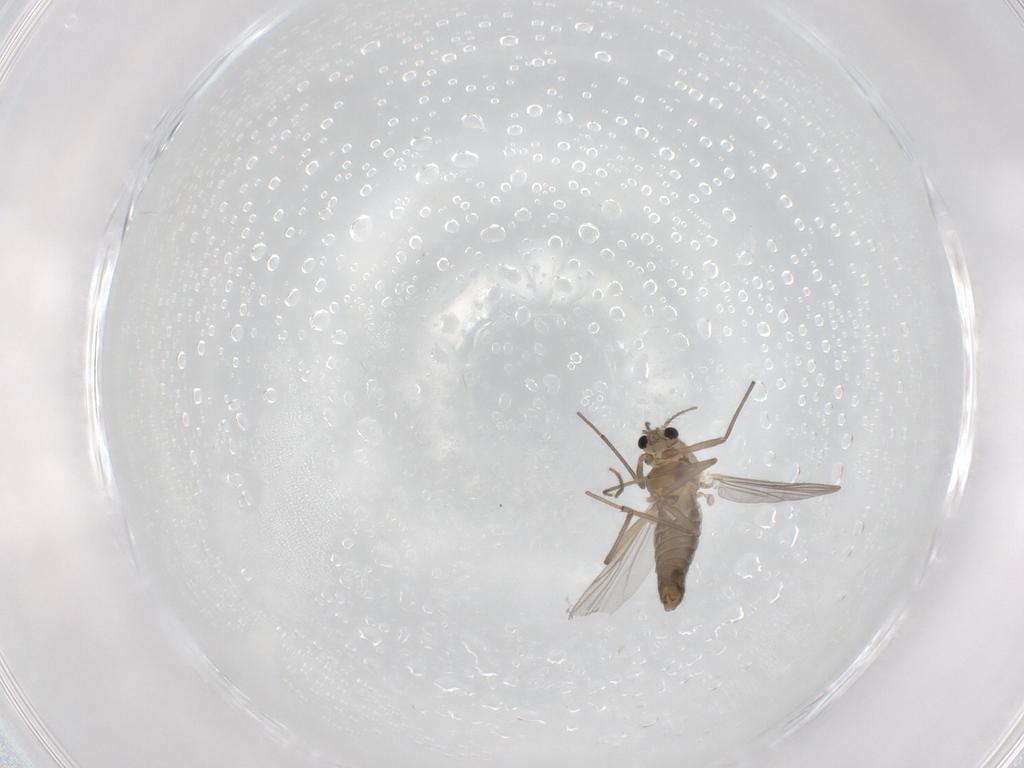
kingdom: Animalia
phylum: Arthropoda
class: Insecta
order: Diptera
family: Chironomidae
